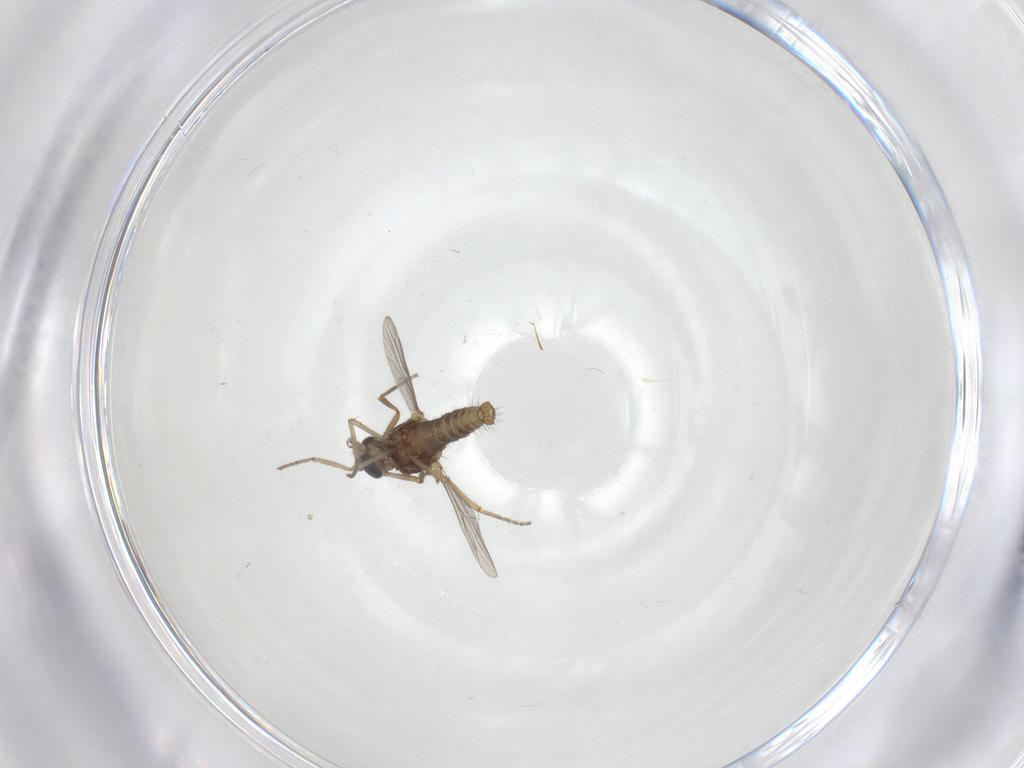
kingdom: Animalia
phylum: Arthropoda
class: Insecta
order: Diptera
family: Ceratopogonidae
